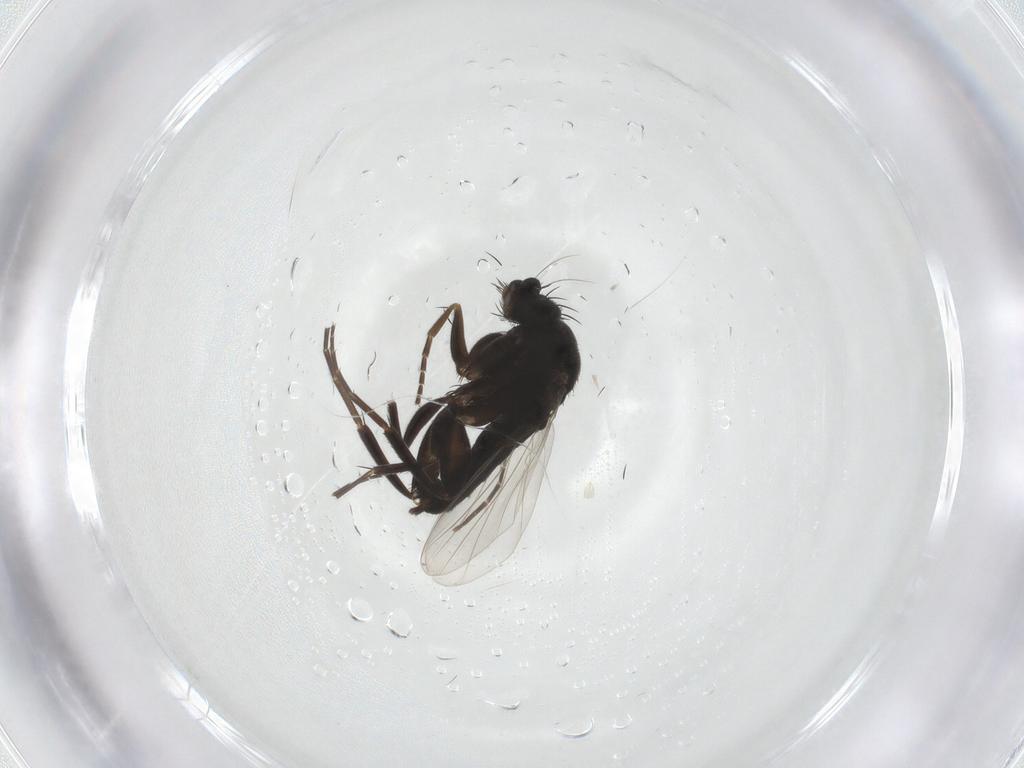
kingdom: Animalia
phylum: Arthropoda
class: Insecta
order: Diptera
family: Phoridae
